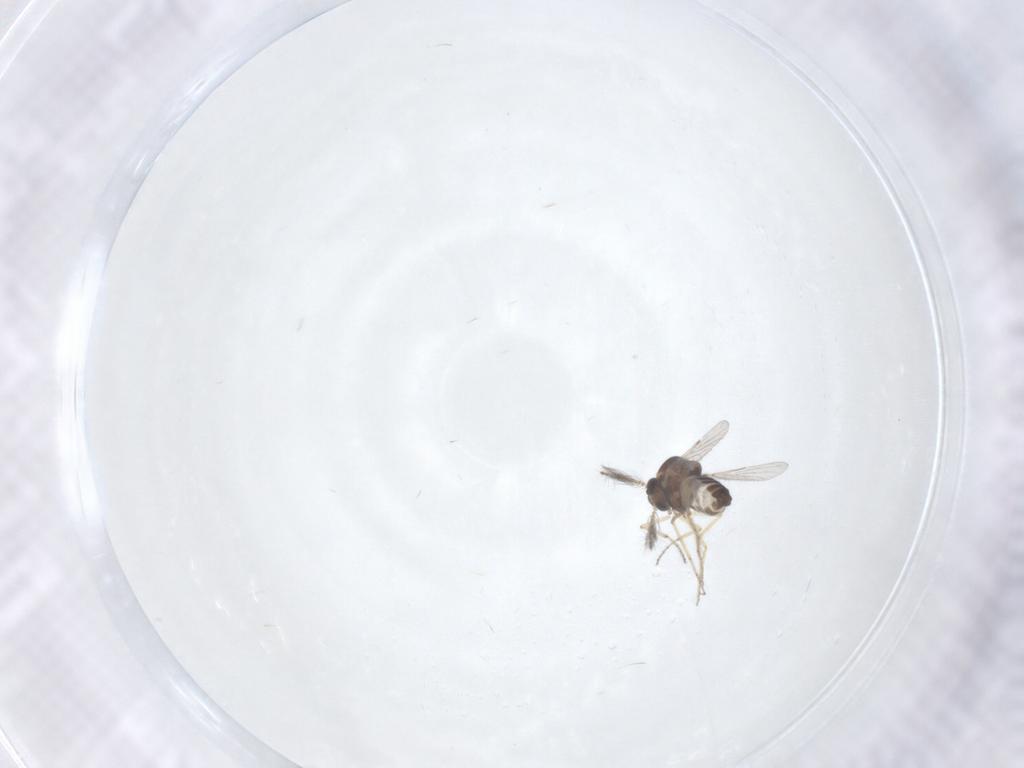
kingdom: Animalia
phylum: Arthropoda
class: Insecta
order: Diptera
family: Ceratopogonidae
